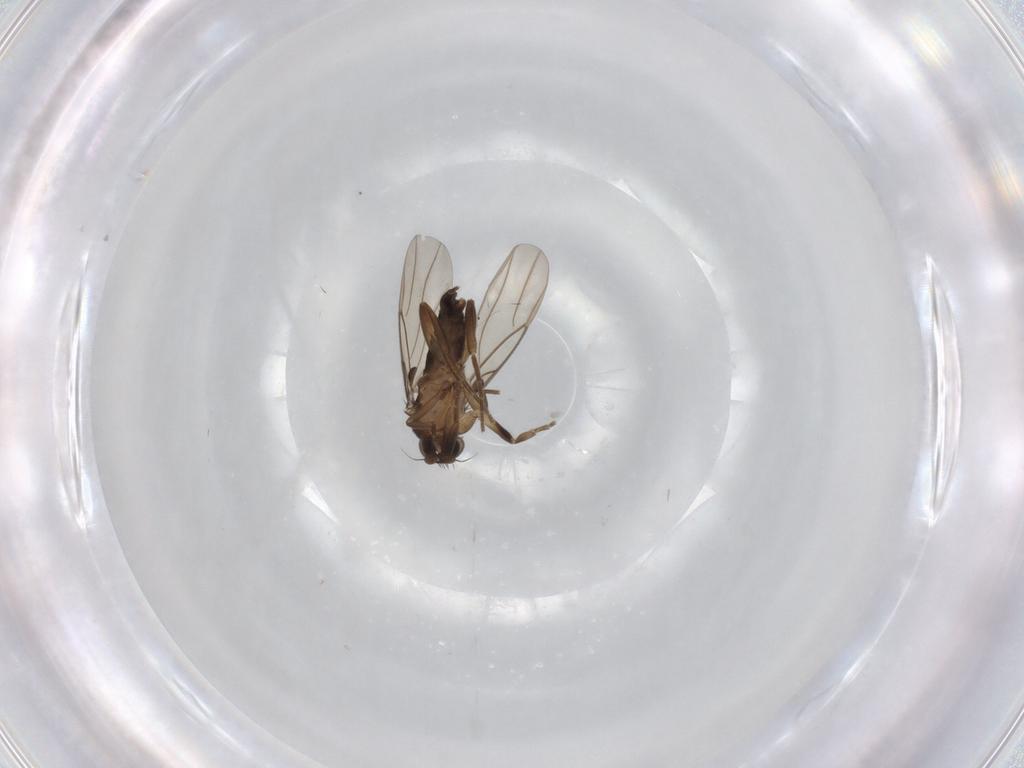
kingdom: Animalia
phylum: Arthropoda
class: Insecta
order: Diptera
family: Phoridae
